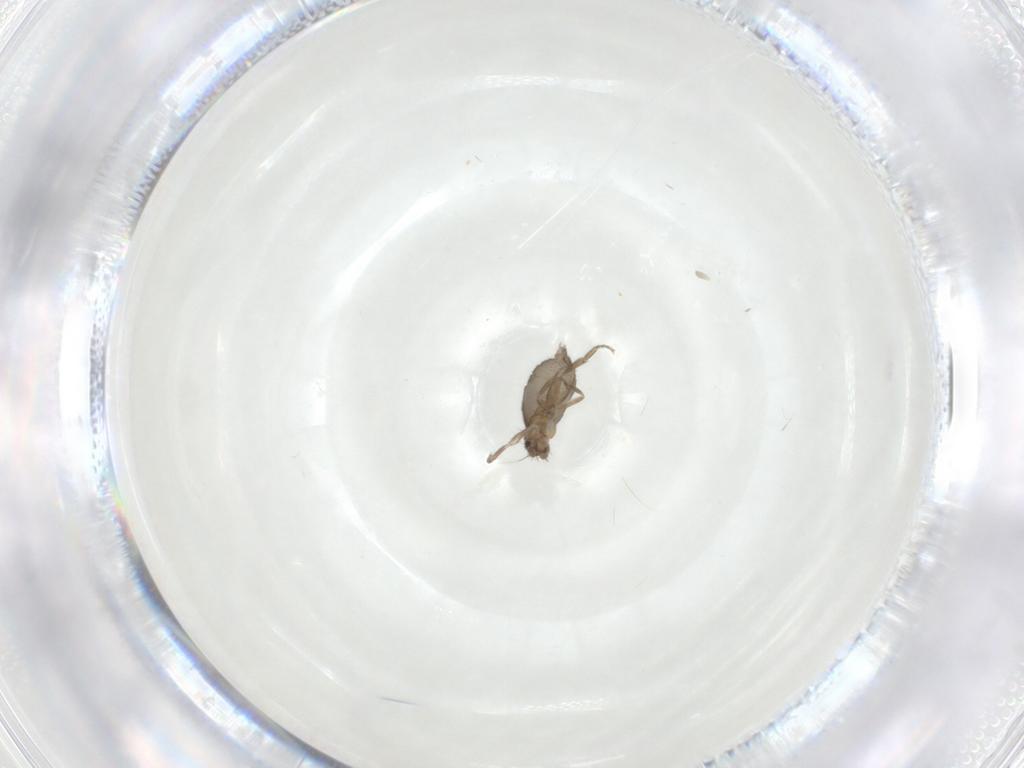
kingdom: Animalia
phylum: Arthropoda
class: Insecta
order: Diptera
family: Phoridae
